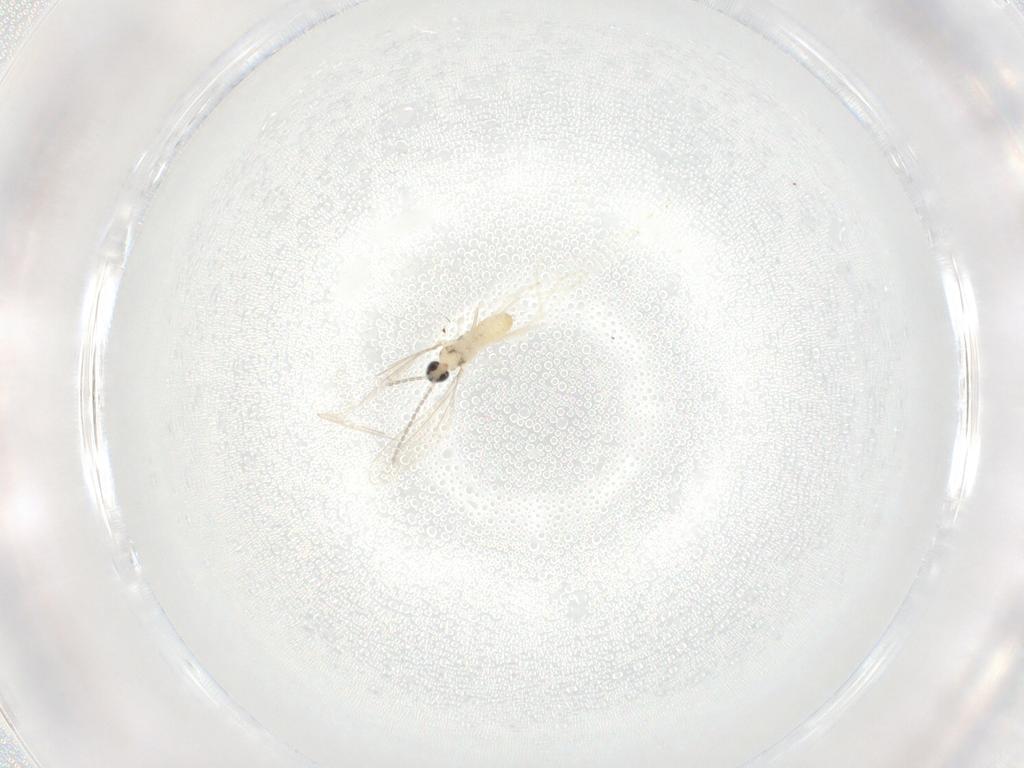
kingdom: Animalia
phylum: Arthropoda
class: Insecta
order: Diptera
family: Cecidomyiidae
